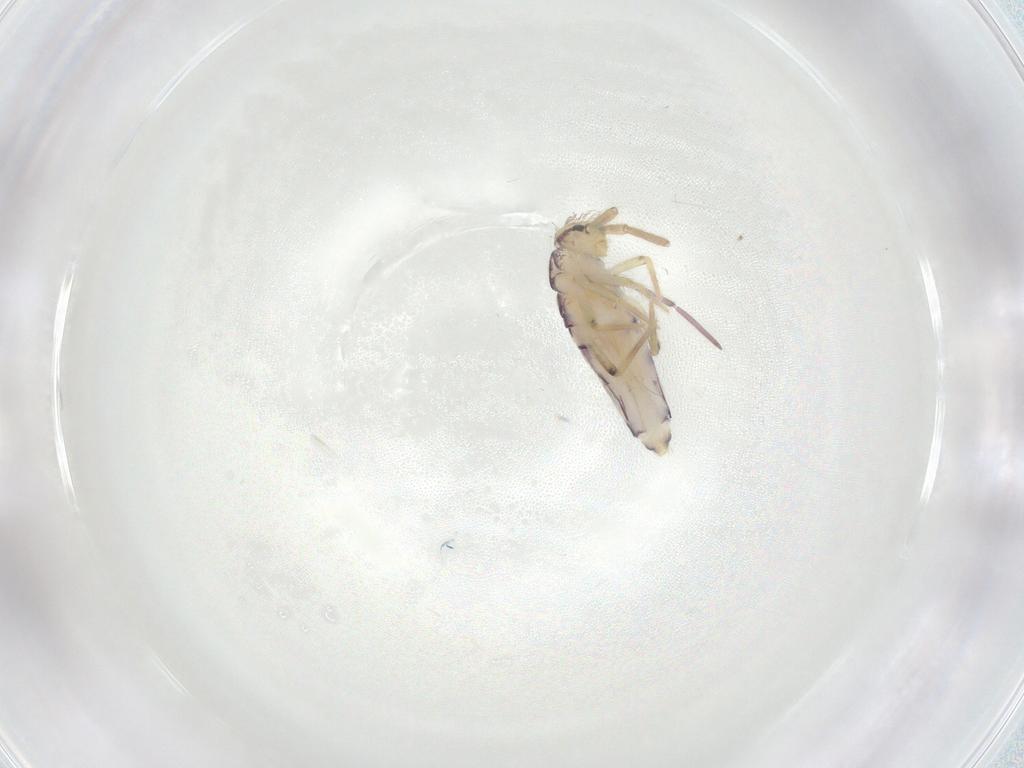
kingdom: Animalia
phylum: Arthropoda
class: Collembola
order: Entomobryomorpha
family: Entomobryidae
